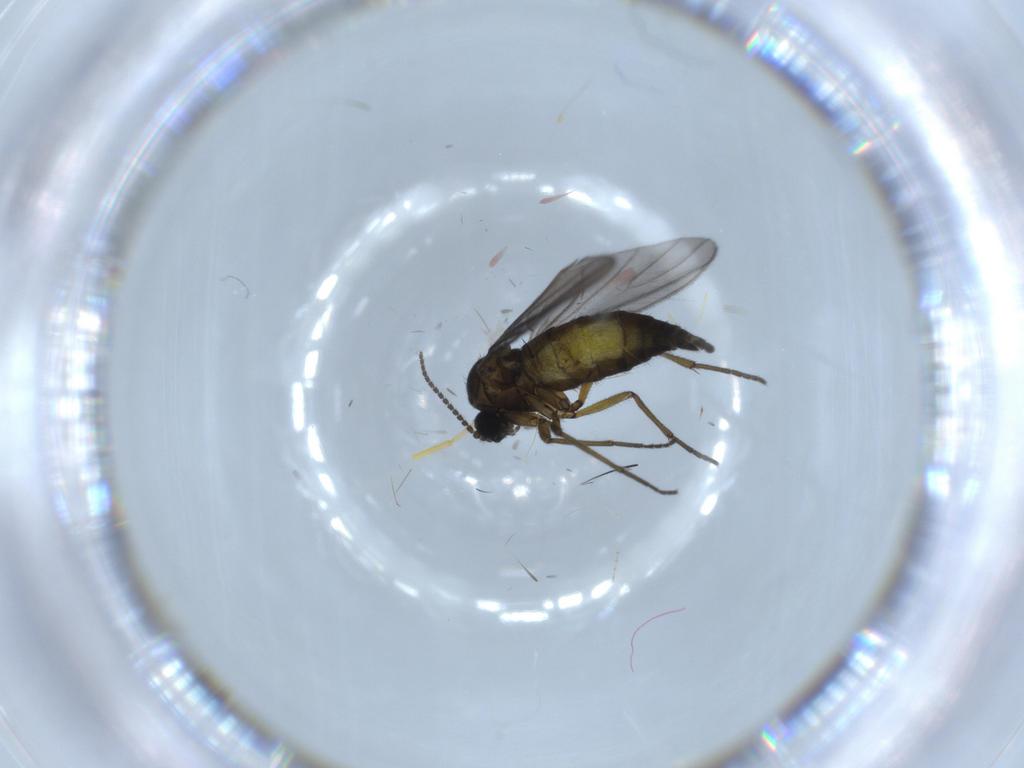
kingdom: Animalia
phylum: Arthropoda
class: Insecta
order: Diptera
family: Sciaridae
